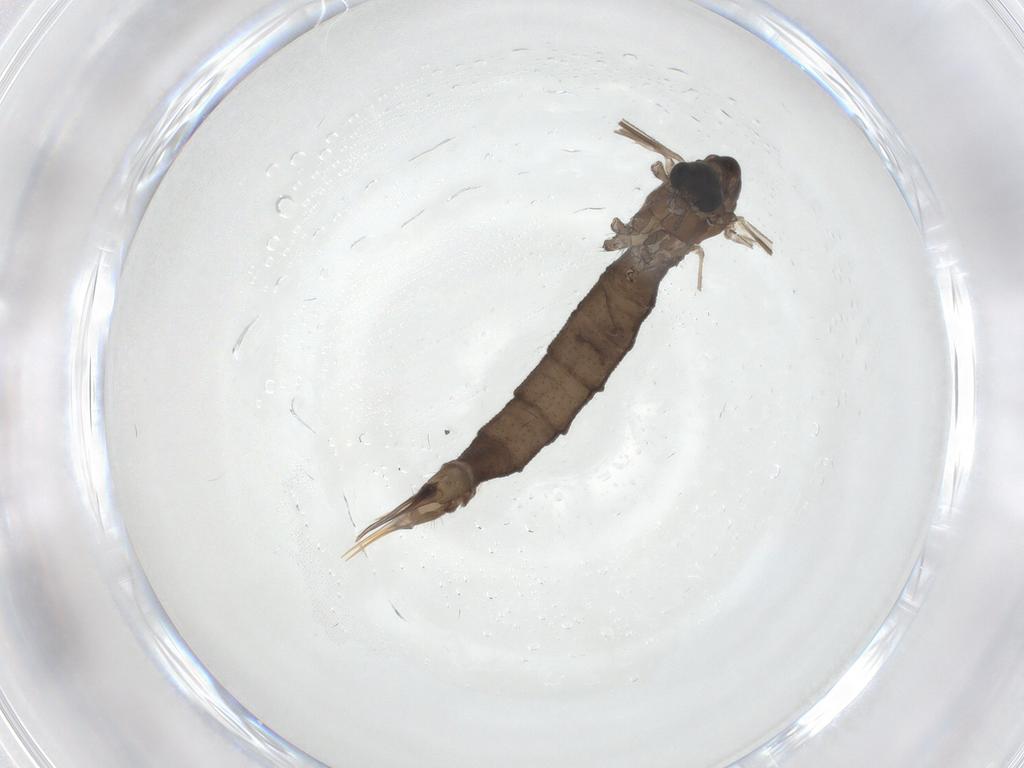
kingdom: Animalia
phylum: Arthropoda
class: Insecta
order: Diptera
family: Limoniidae
